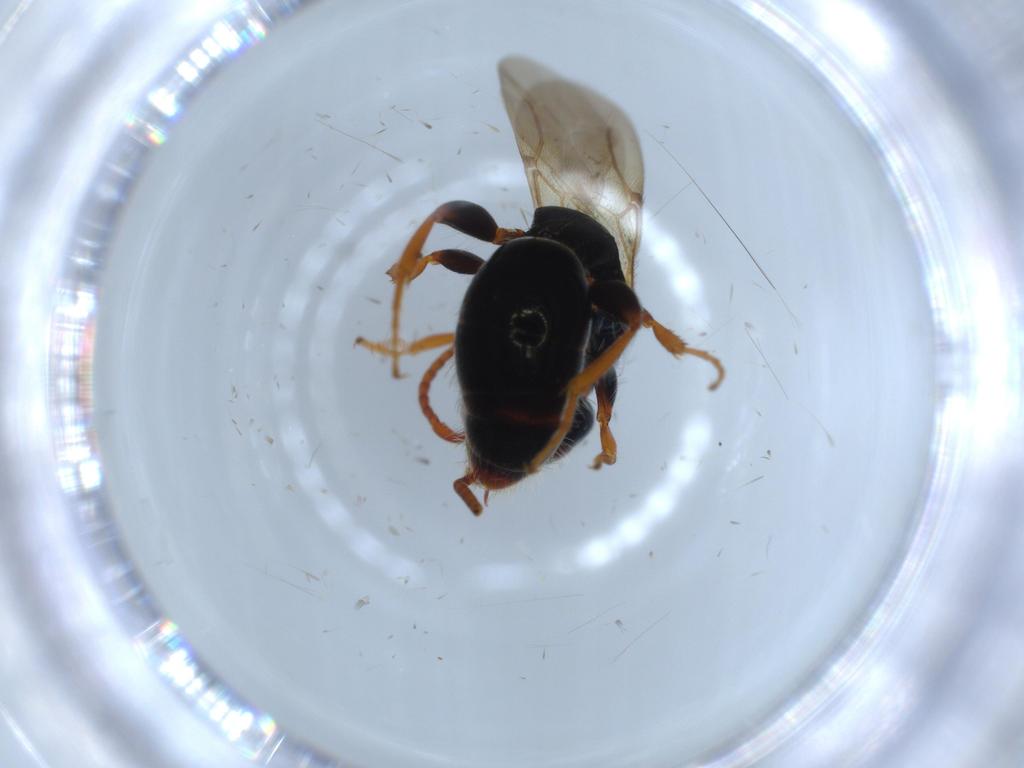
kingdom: Animalia
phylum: Arthropoda
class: Insecta
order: Hymenoptera
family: Bethylidae
